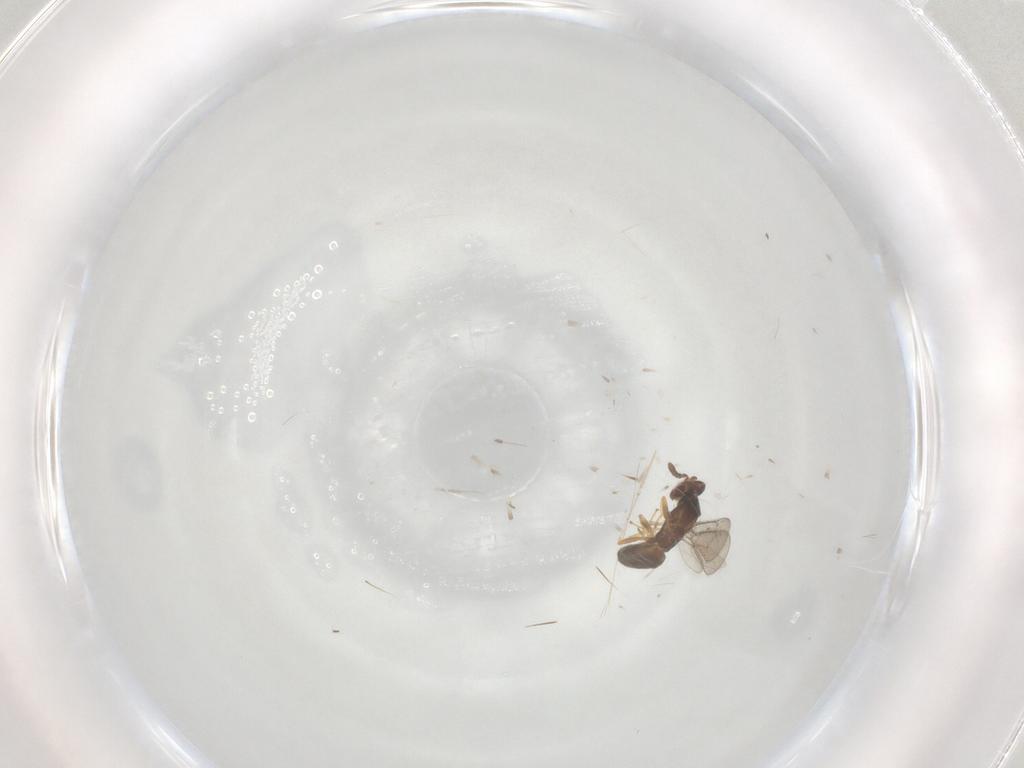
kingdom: Animalia
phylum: Arthropoda
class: Insecta
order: Hymenoptera
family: Eulophidae
